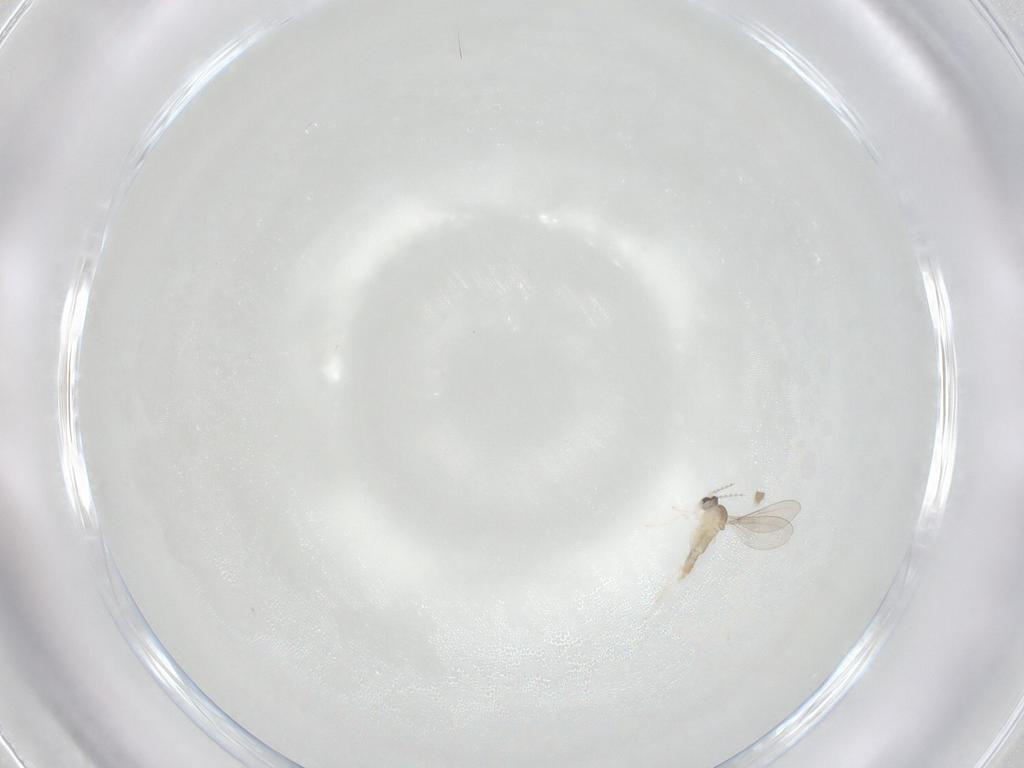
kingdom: Animalia
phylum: Arthropoda
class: Insecta
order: Diptera
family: Cecidomyiidae
